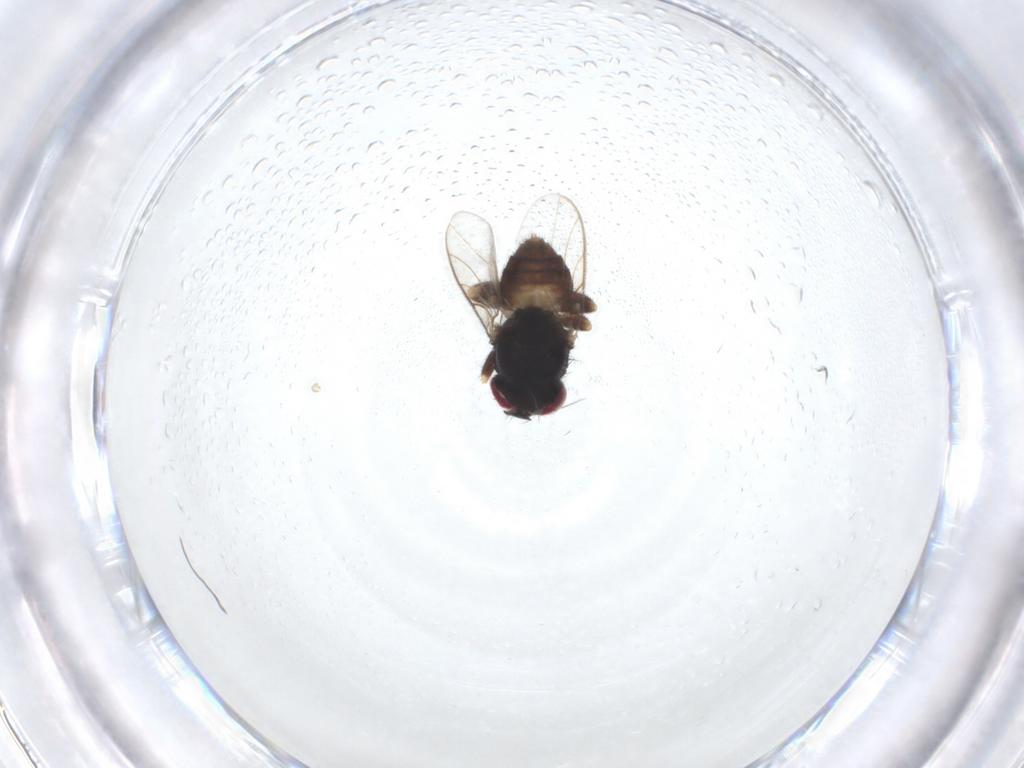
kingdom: Animalia
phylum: Arthropoda
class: Insecta
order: Diptera
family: Chloropidae
